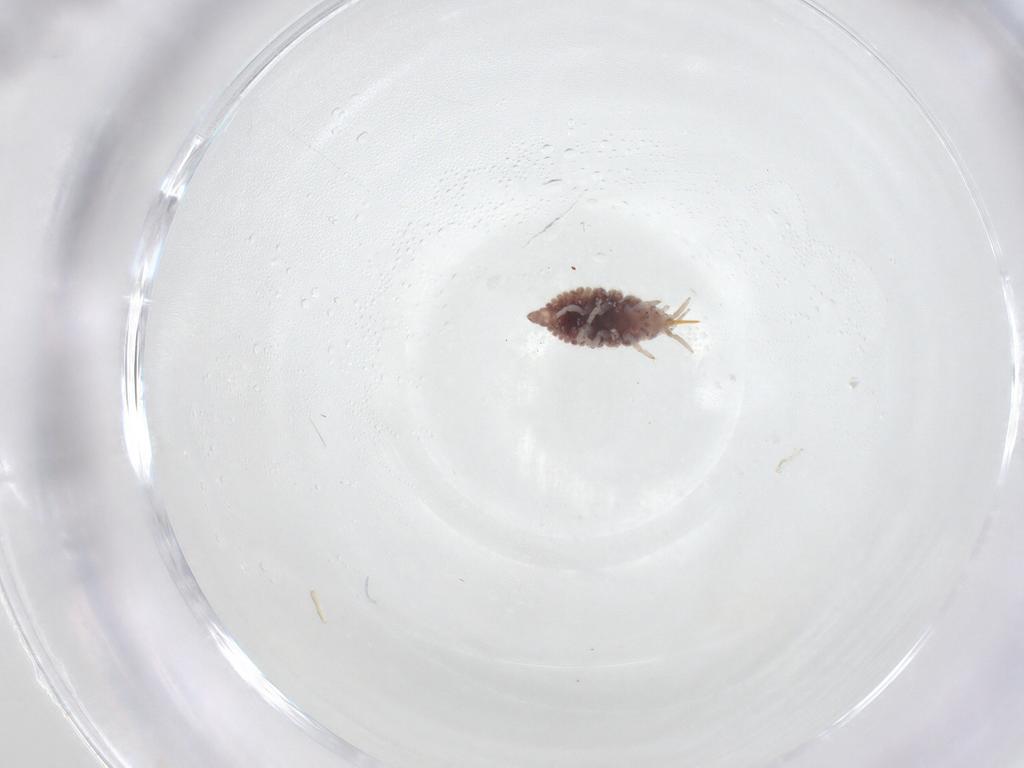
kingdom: Animalia
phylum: Arthropoda
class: Insecta
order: Neuroptera
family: Coniopterygidae
